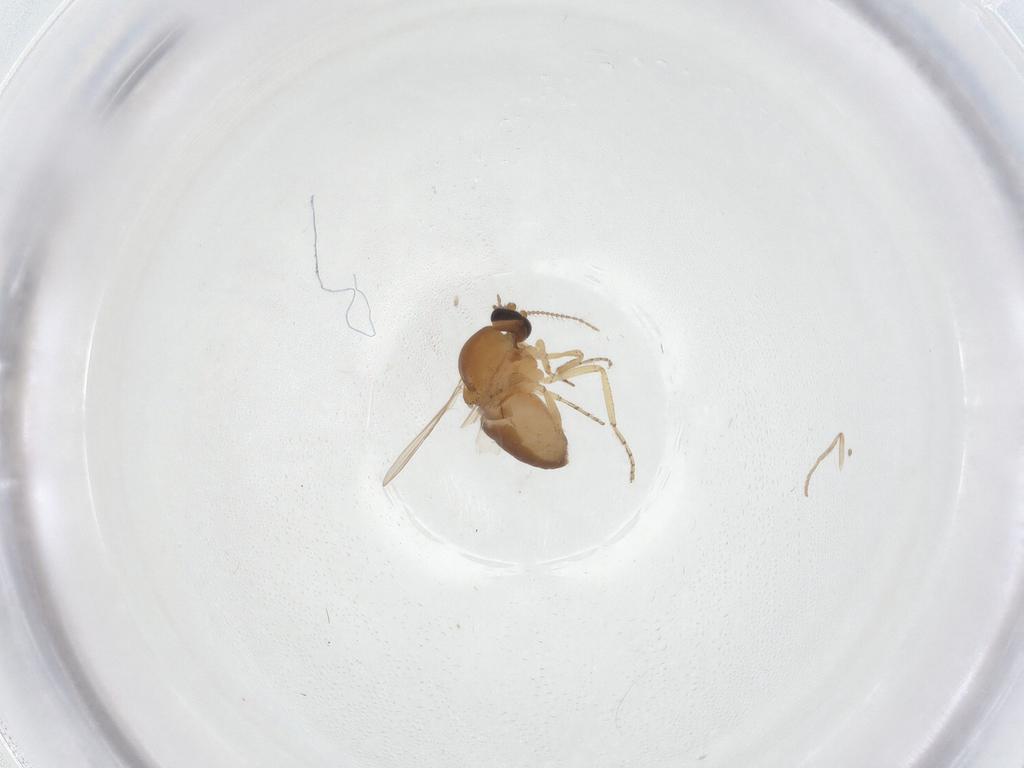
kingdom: Animalia
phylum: Arthropoda
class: Insecta
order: Diptera
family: Sphaeroceridae
